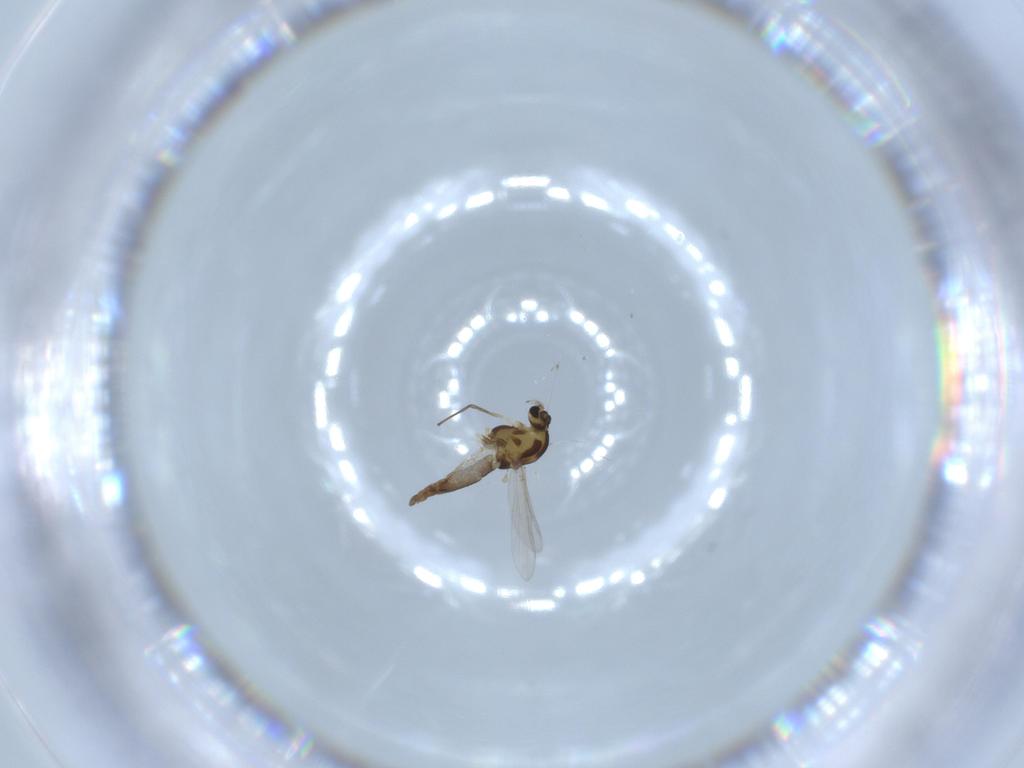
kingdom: Animalia
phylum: Arthropoda
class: Insecta
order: Diptera
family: Chironomidae
